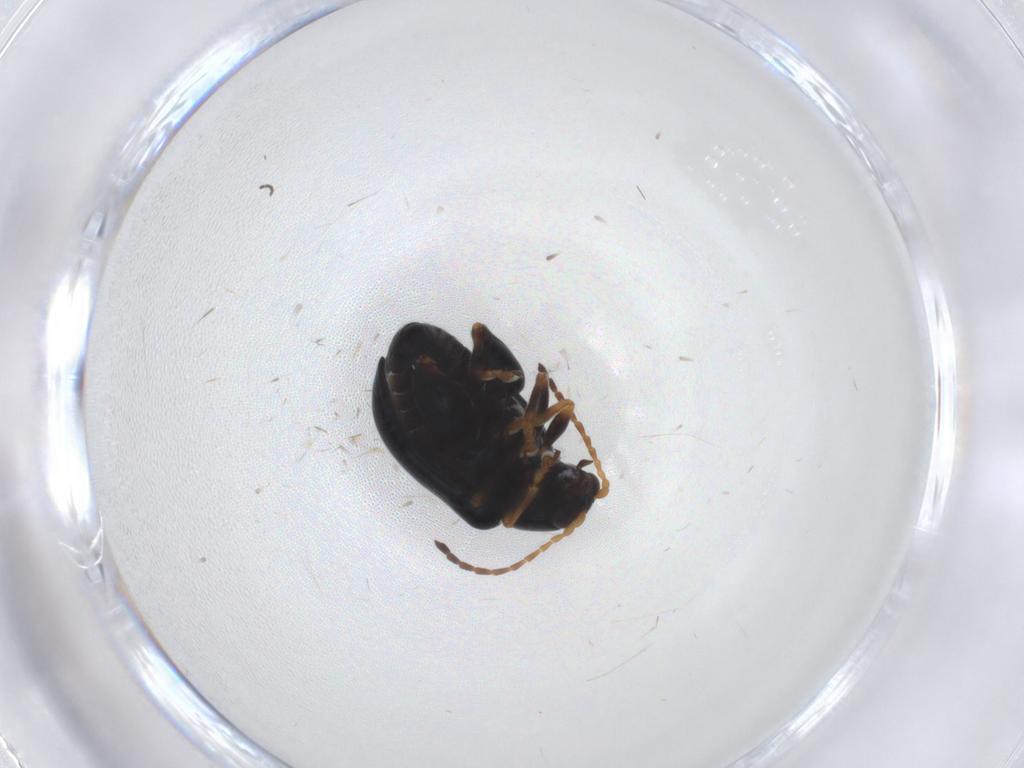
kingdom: Animalia
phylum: Arthropoda
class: Insecta
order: Coleoptera
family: Chrysomelidae
